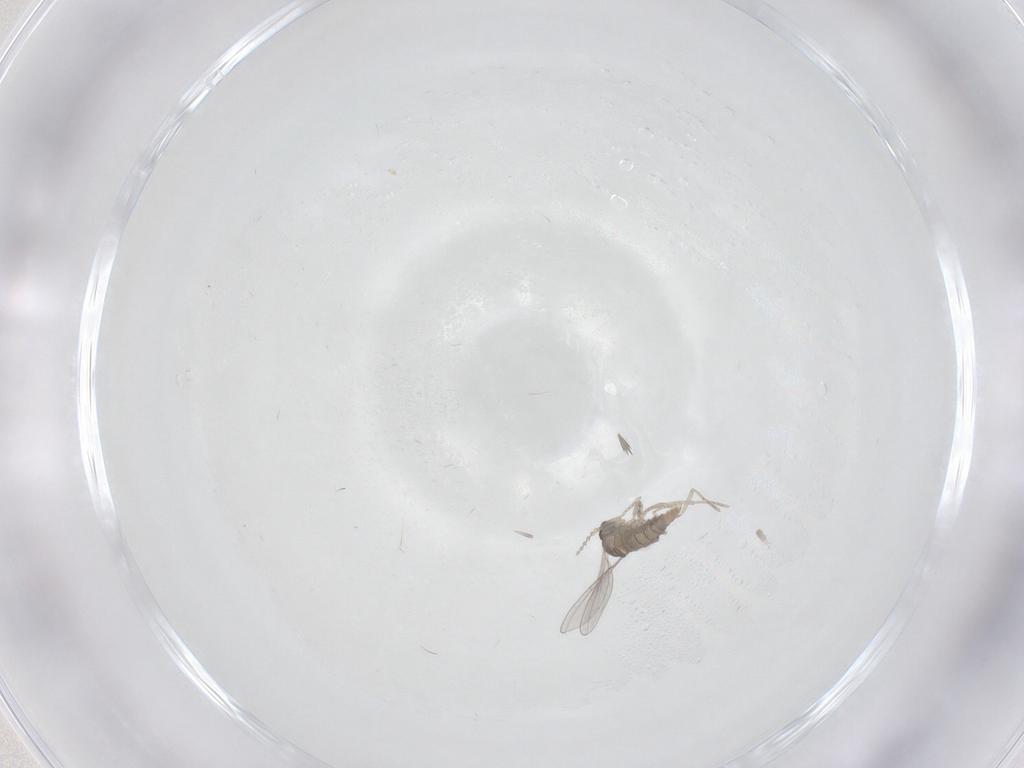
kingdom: Animalia
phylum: Arthropoda
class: Insecta
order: Diptera
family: Cecidomyiidae
